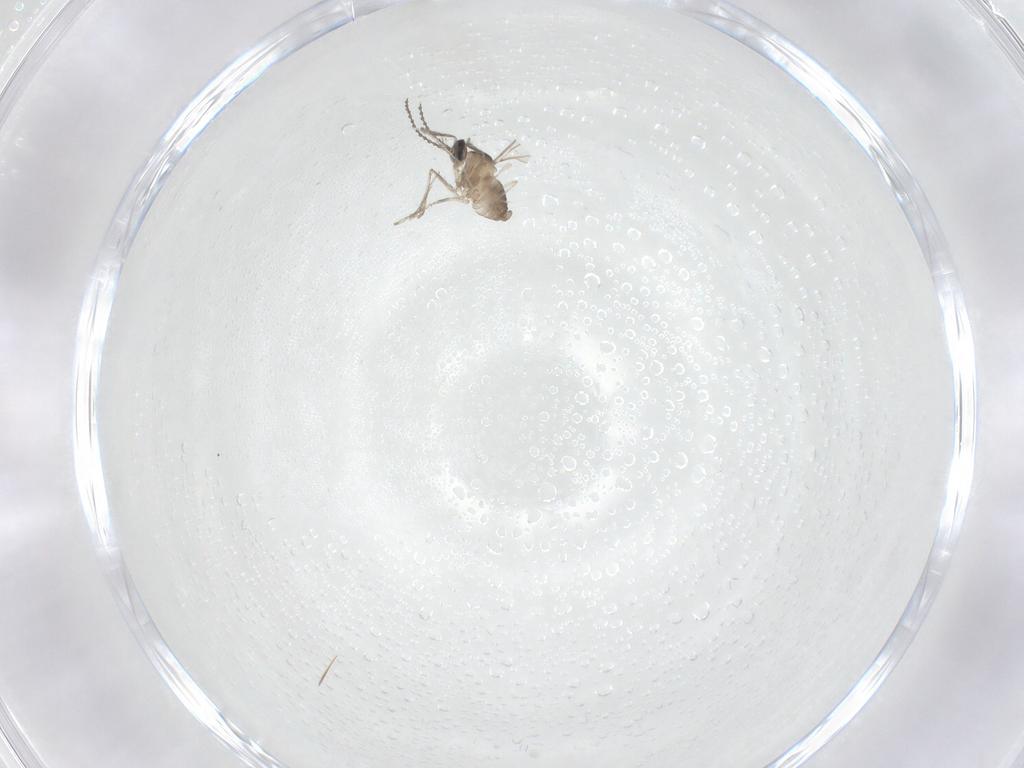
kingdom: Animalia
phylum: Arthropoda
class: Insecta
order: Diptera
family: Cecidomyiidae
